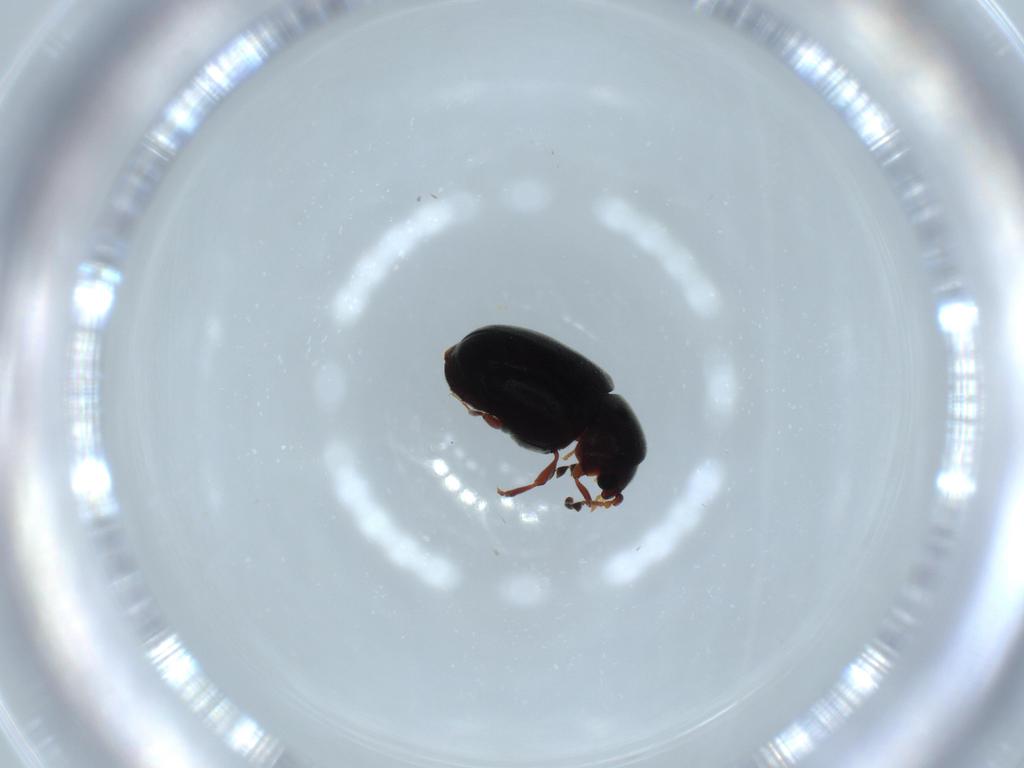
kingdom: Animalia
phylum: Arthropoda
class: Insecta
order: Coleoptera
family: Ptinidae
